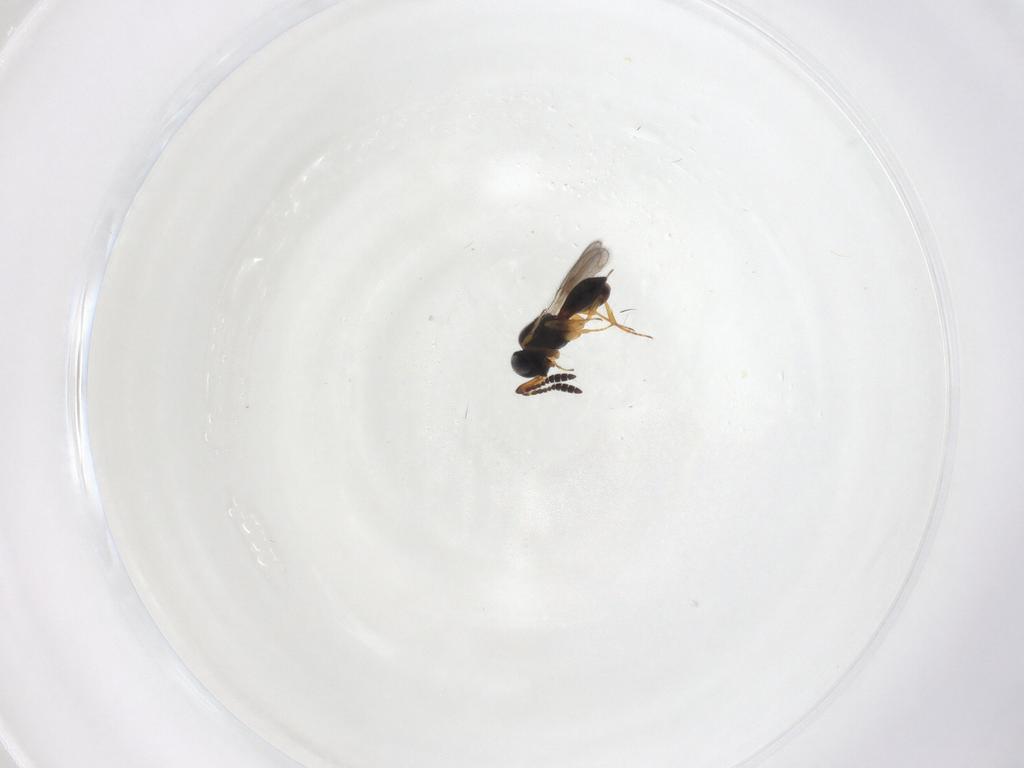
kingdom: Animalia
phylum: Arthropoda
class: Insecta
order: Hymenoptera
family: Scelionidae
